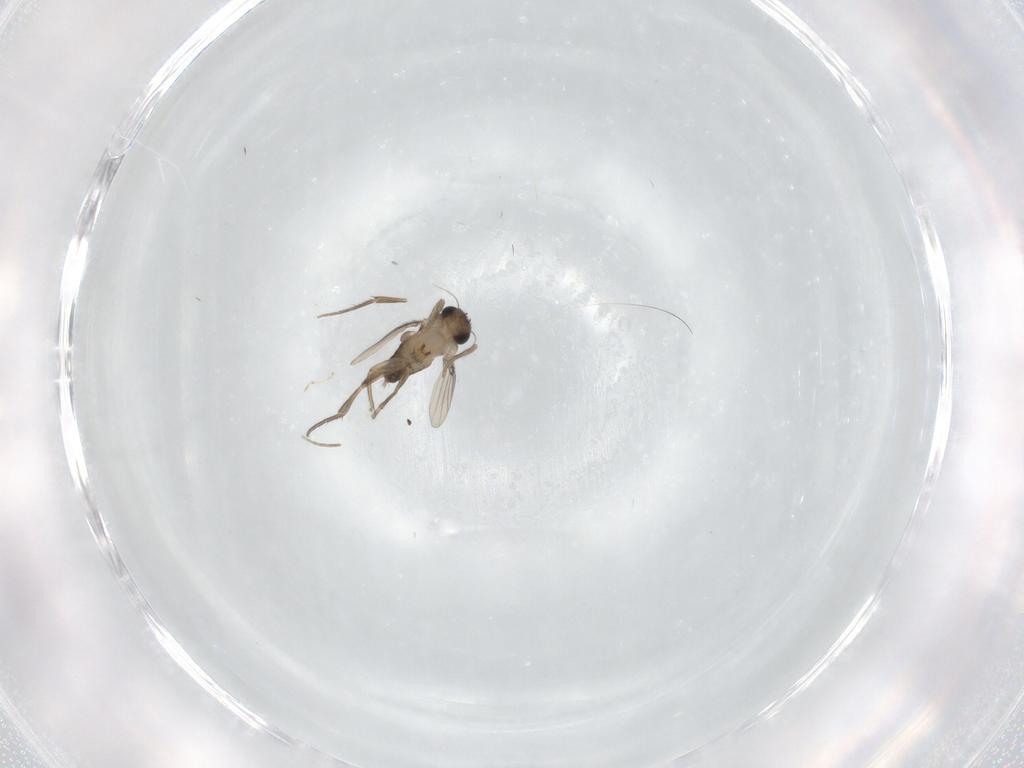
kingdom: Animalia
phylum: Arthropoda
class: Insecta
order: Diptera
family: Phoridae
